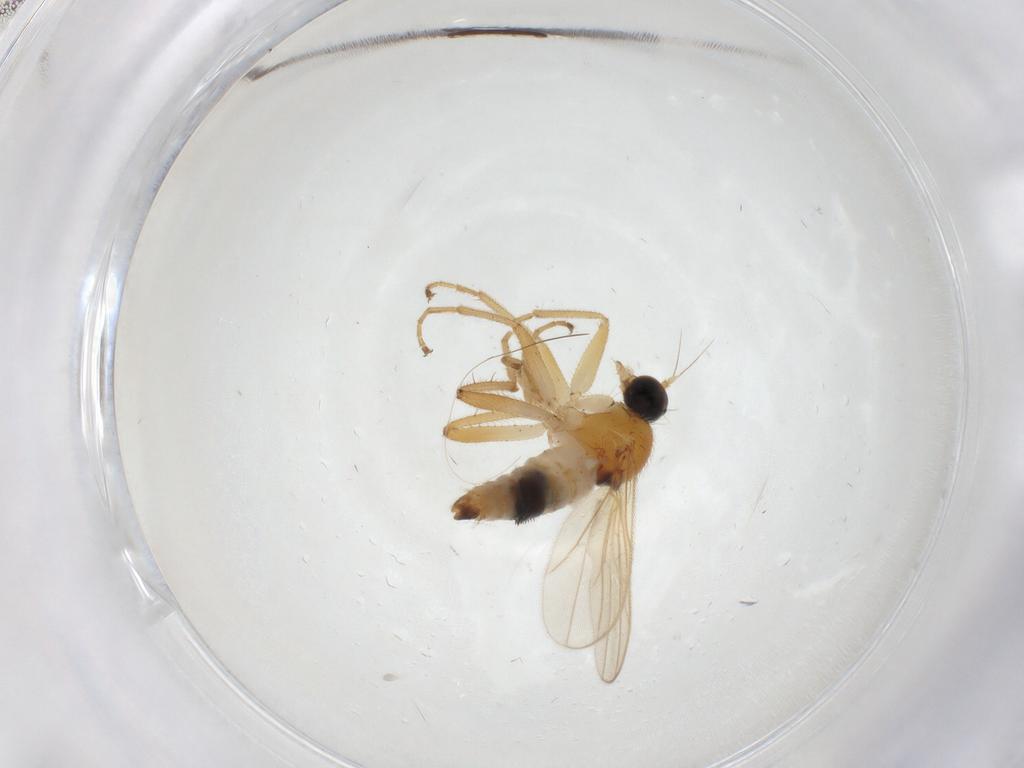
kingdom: Animalia
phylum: Arthropoda
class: Insecta
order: Diptera
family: Hybotidae
